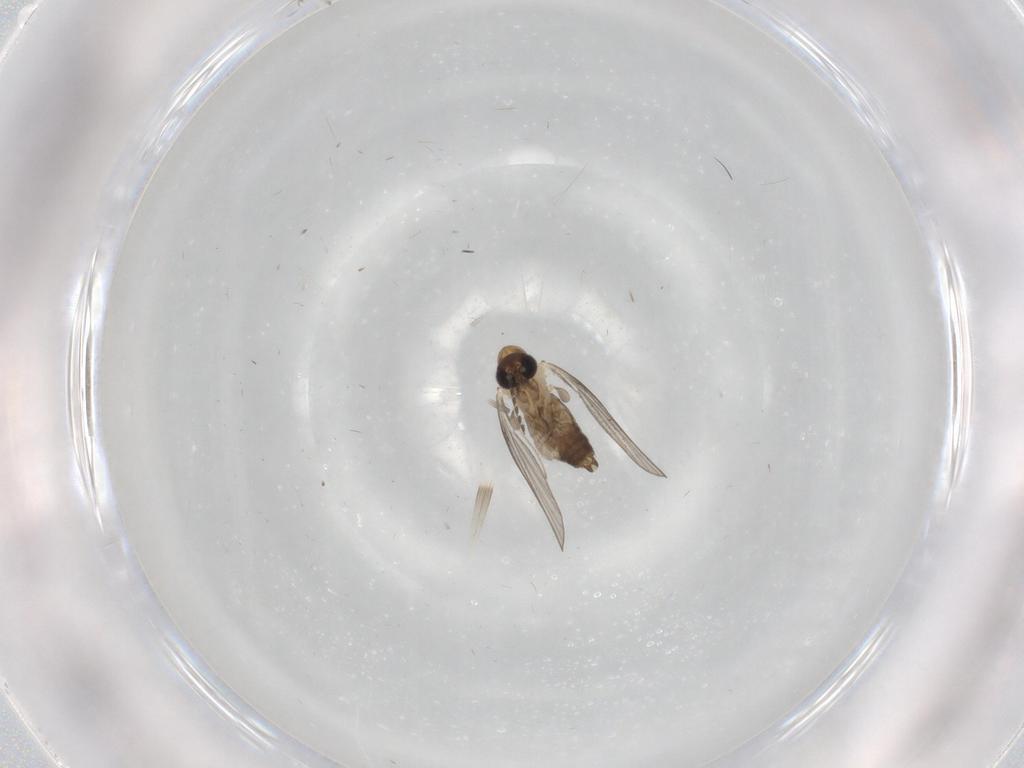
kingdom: Animalia
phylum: Arthropoda
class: Insecta
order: Diptera
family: Psychodidae
